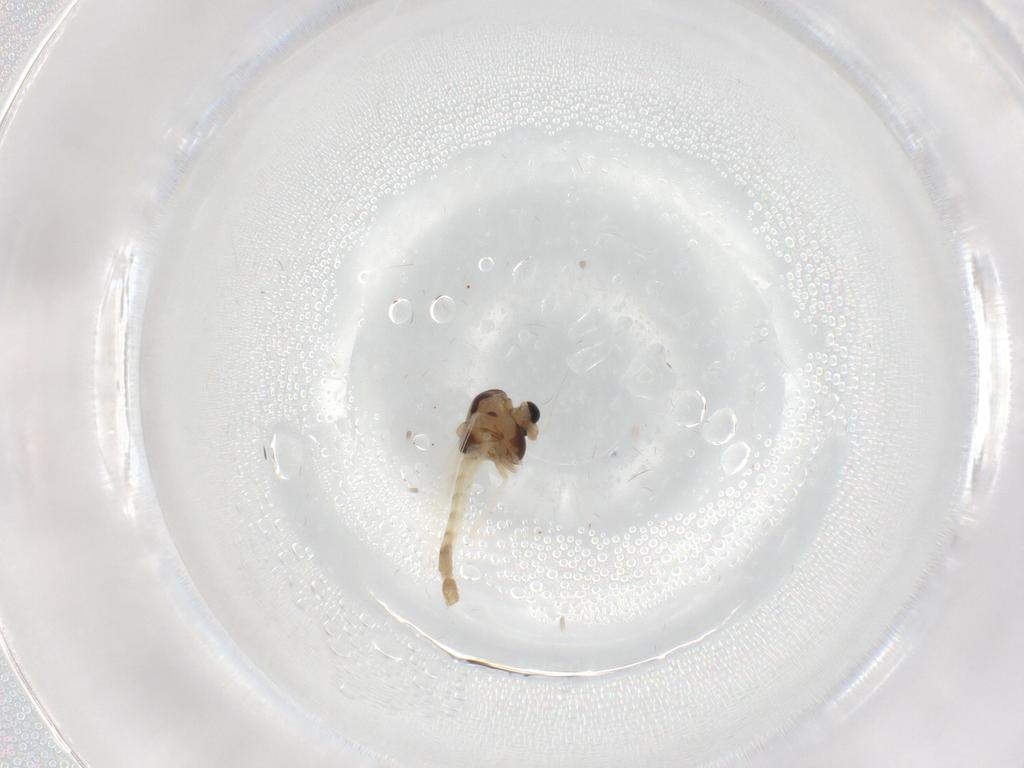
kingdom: Animalia
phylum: Arthropoda
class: Insecta
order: Diptera
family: Chironomidae
